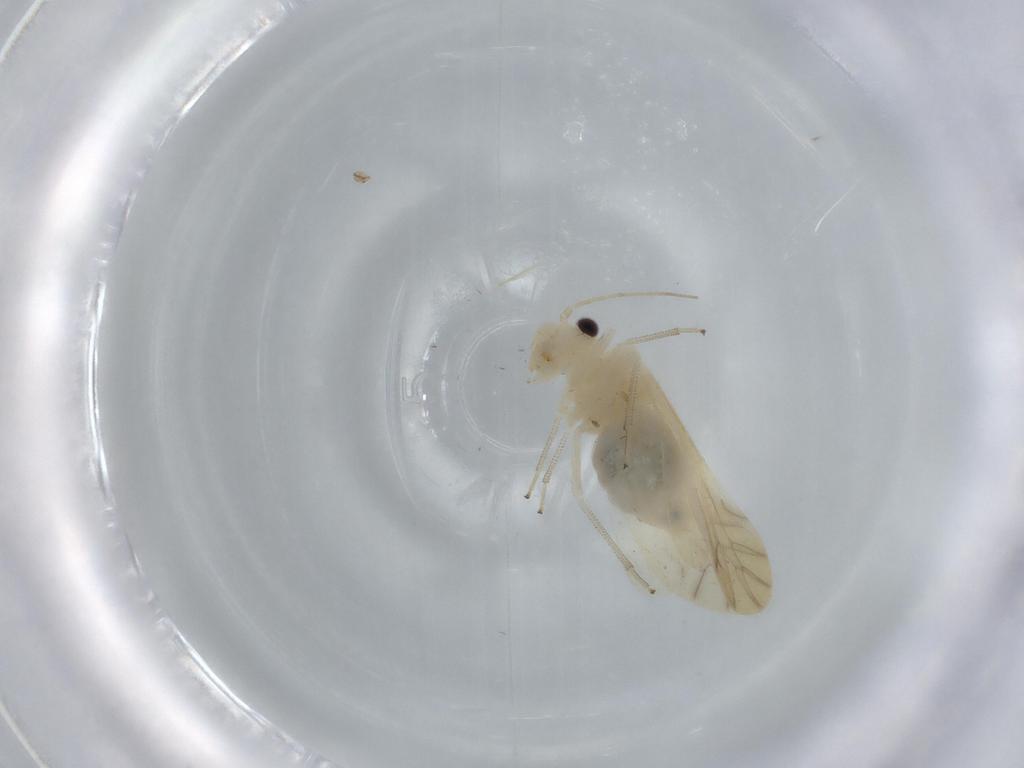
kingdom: Animalia
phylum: Arthropoda
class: Insecta
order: Psocodea
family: Caeciliusidae
